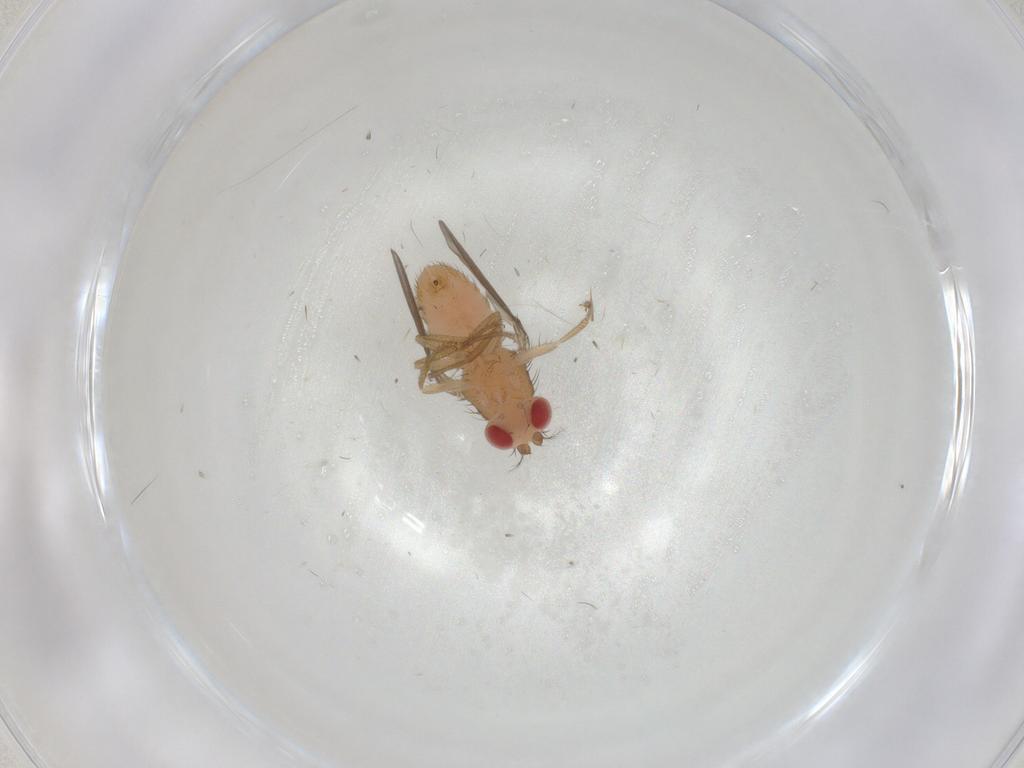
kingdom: Animalia
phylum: Arthropoda
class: Insecta
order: Diptera
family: Drosophilidae
